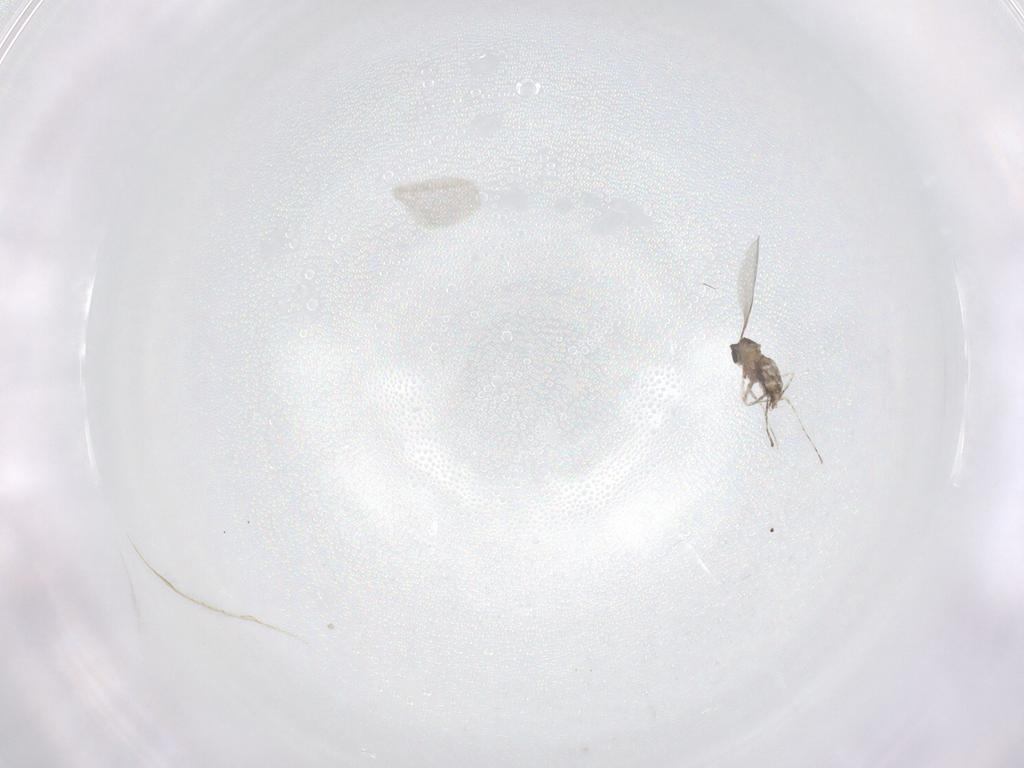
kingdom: Animalia
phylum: Arthropoda
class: Insecta
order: Diptera
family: Cecidomyiidae
